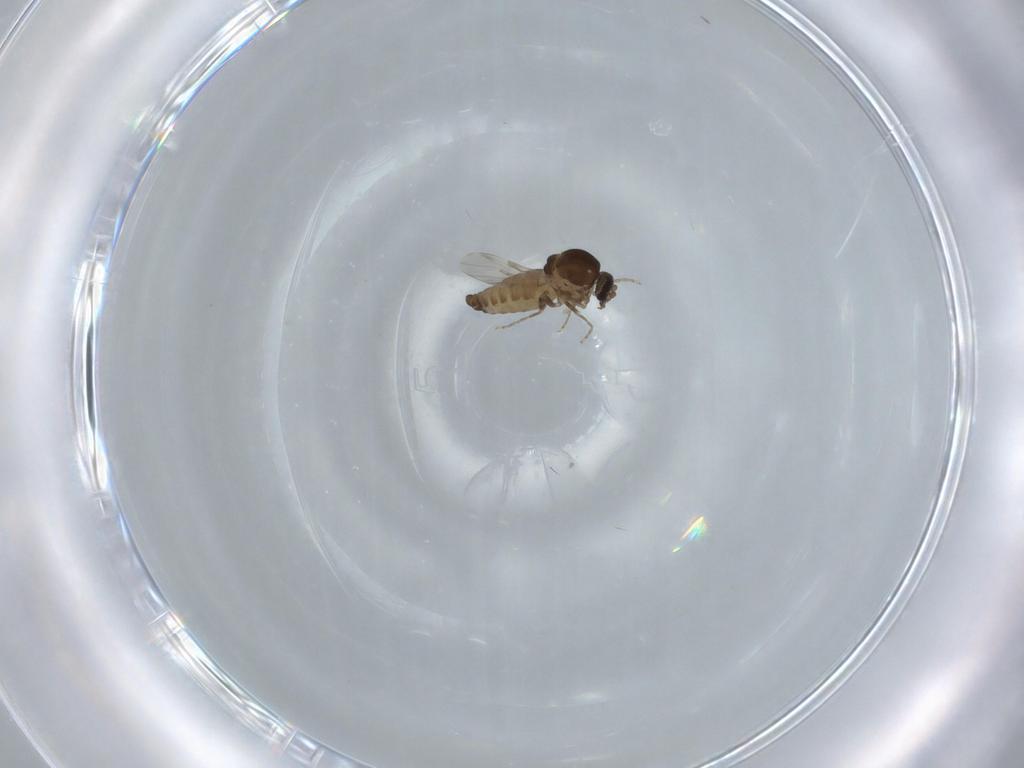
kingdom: Animalia
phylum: Arthropoda
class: Insecta
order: Diptera
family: Ceratopogonidae
